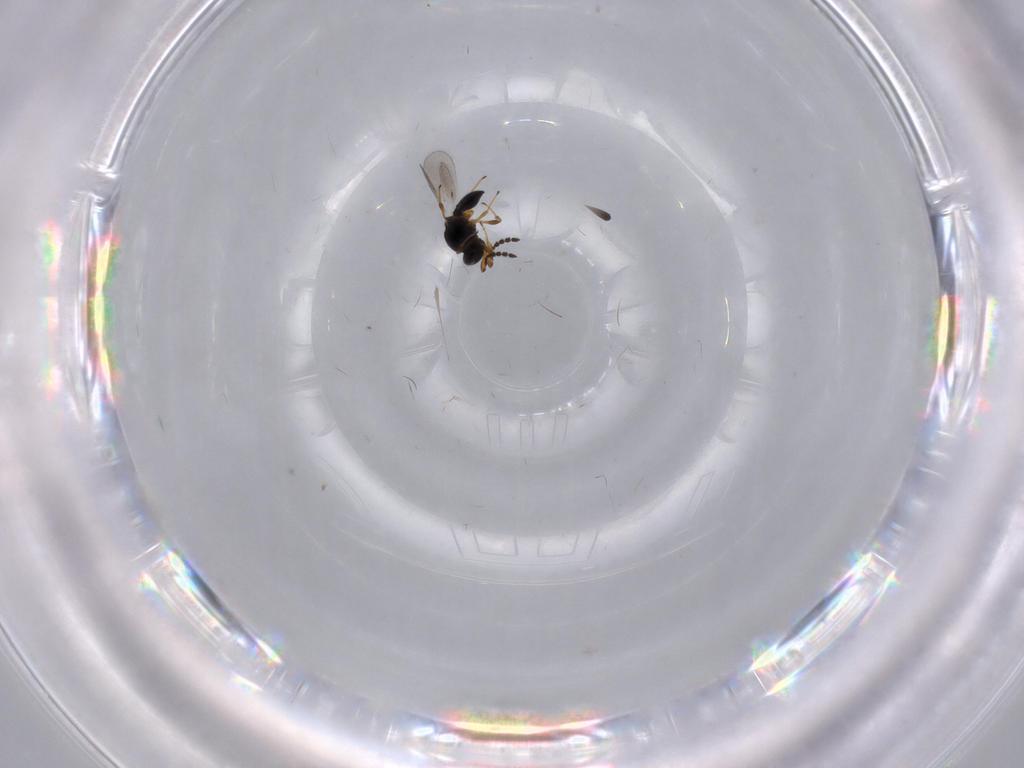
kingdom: Animalia
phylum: Arthropoda
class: Insecta
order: Hymenoptera
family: Platygastridae
